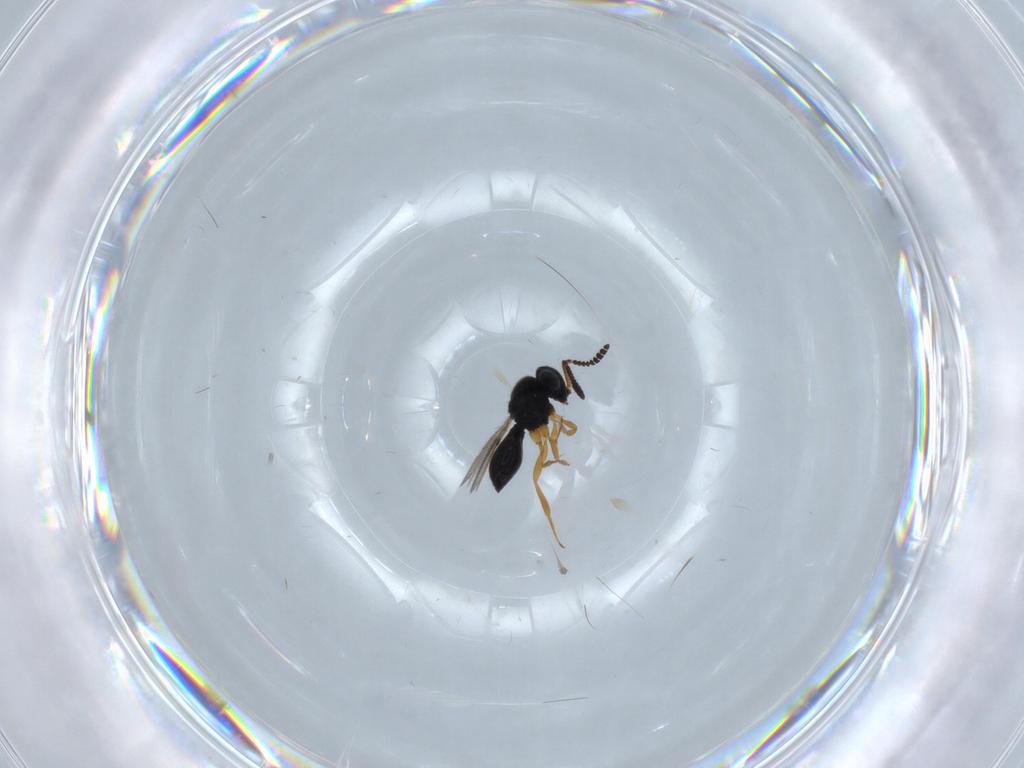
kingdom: Animalia
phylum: Arthropoda
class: Insecta
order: Hymenoptera
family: Scelionidae
